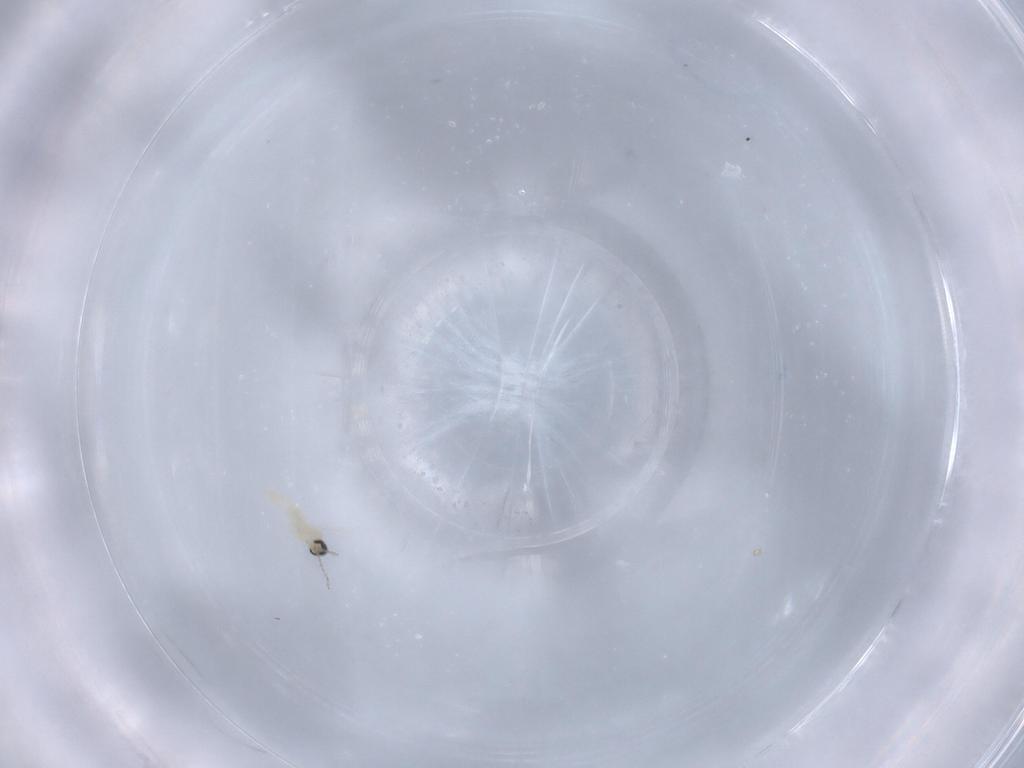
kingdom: Animalia
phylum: Arthropoda
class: Insecta
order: Diptera
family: Cecidomyiidae
